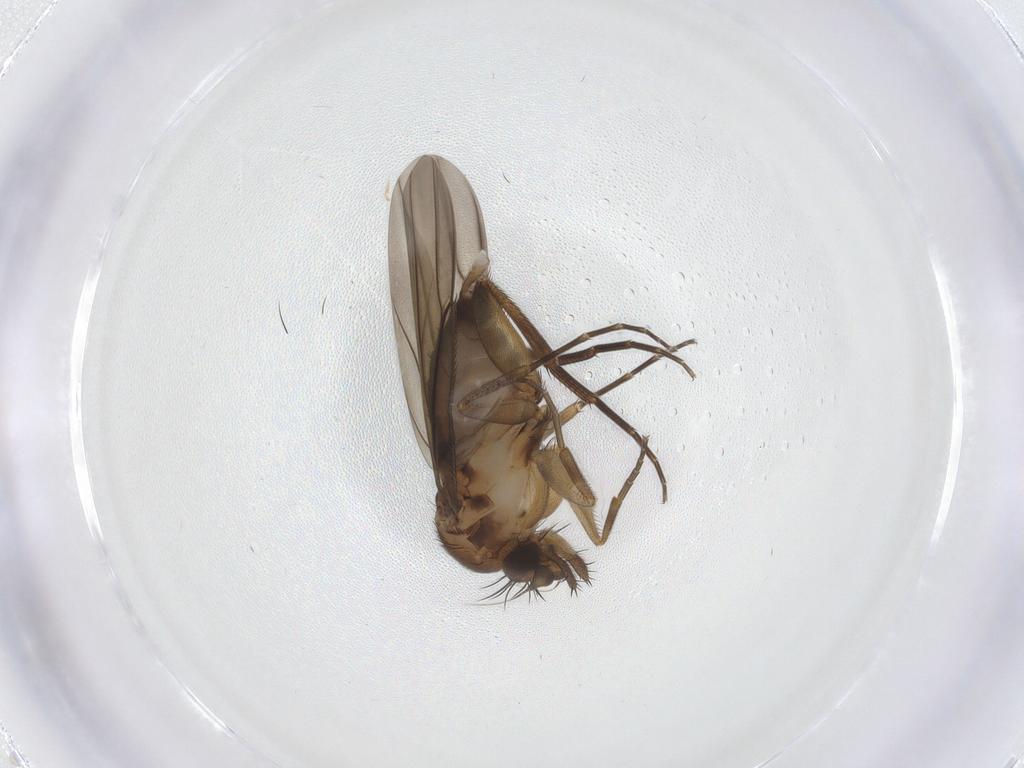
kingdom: Animalia
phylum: Arthropoda
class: Insecta
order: Diptera
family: Phoridae
